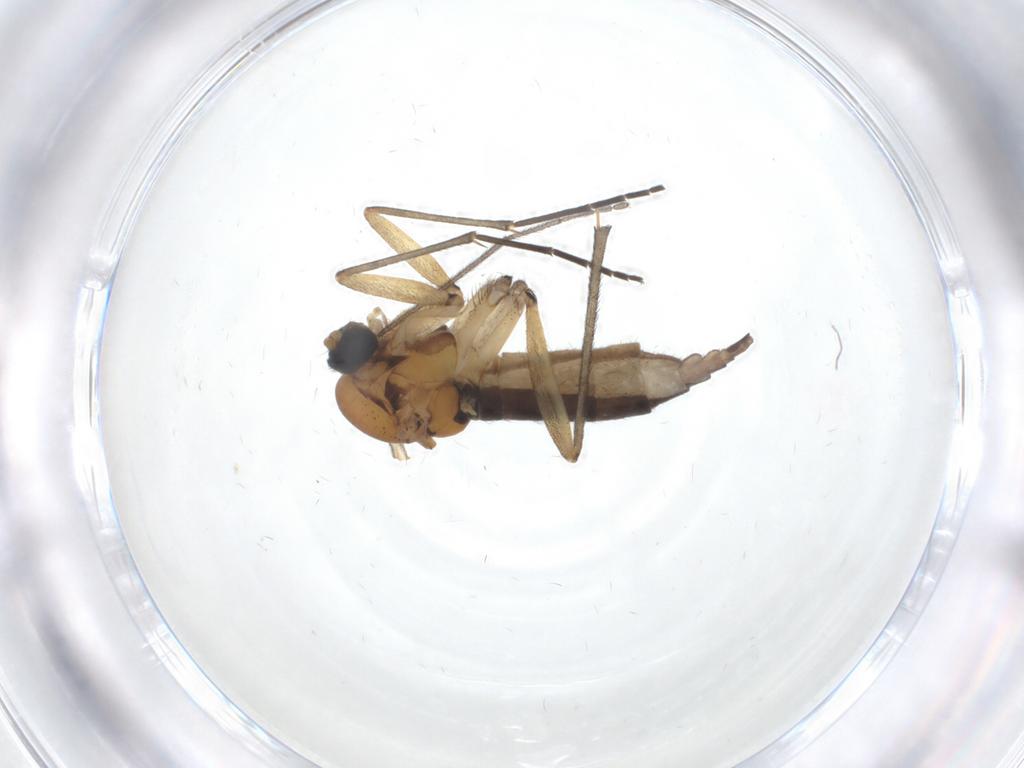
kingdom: Animalia
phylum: Arthropoda
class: Insecta
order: Diptera
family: Sciaridae
